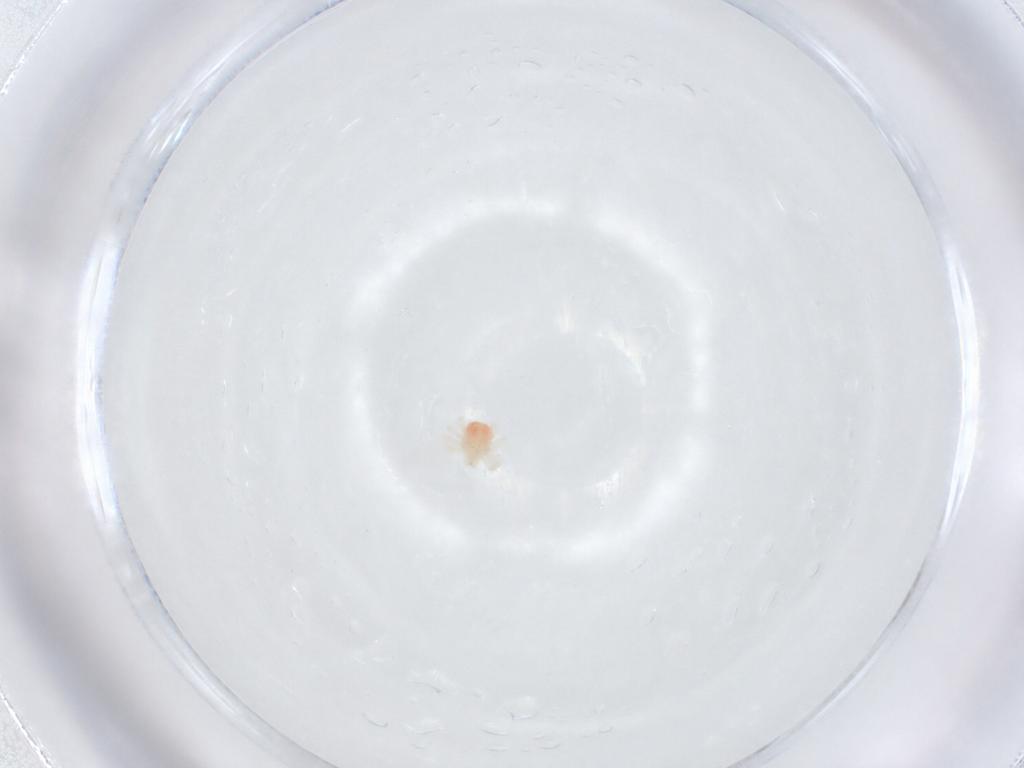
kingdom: Animalia
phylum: Arthropoda
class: Arachnida
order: Trombidiformes
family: Anystidae
